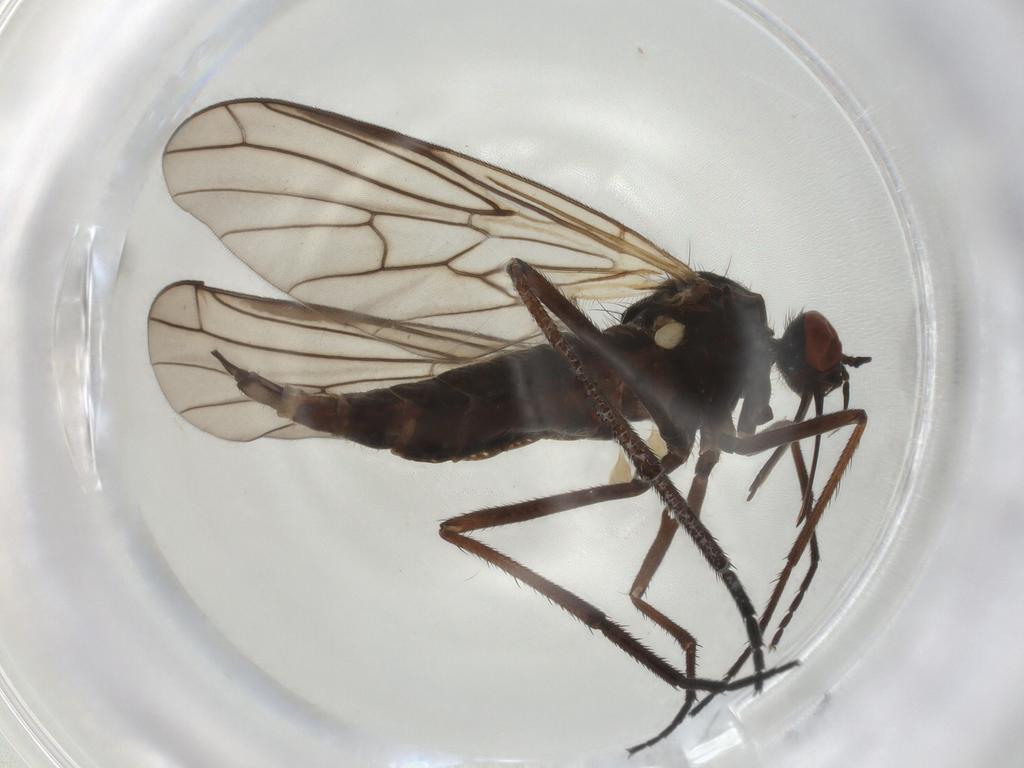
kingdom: Animalia
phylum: Arthropoda
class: Insecta
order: Diptera
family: Empididae
